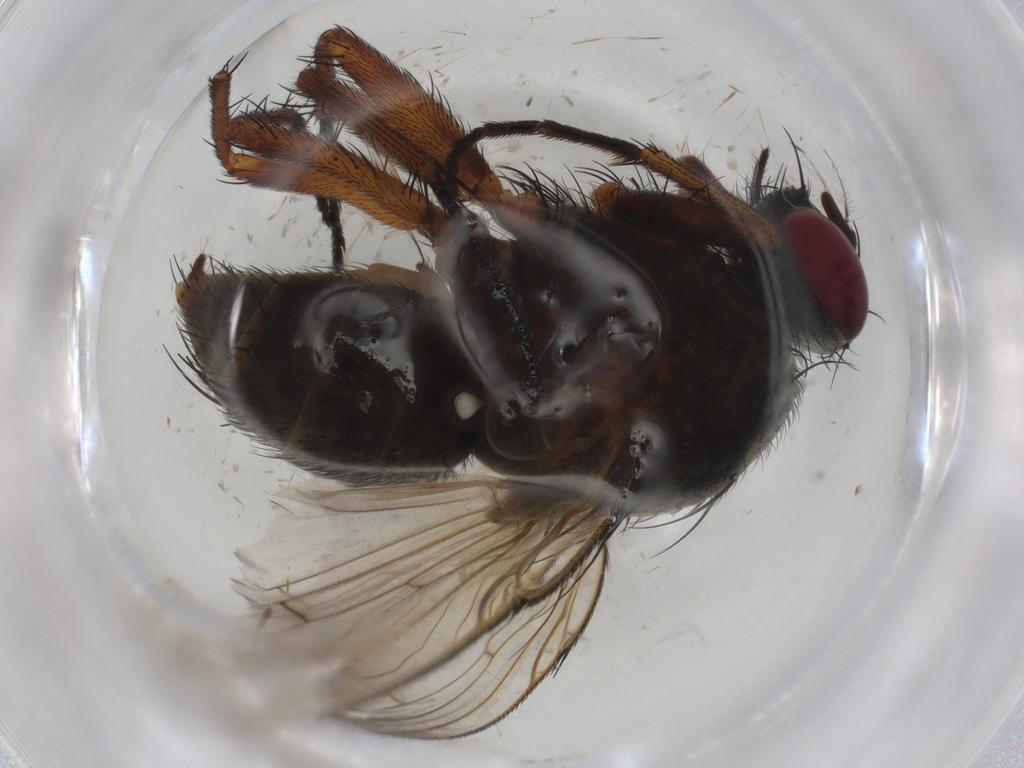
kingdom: Animalia
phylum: Arthropoda
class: Insecta
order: Diptera
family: Muscidae
